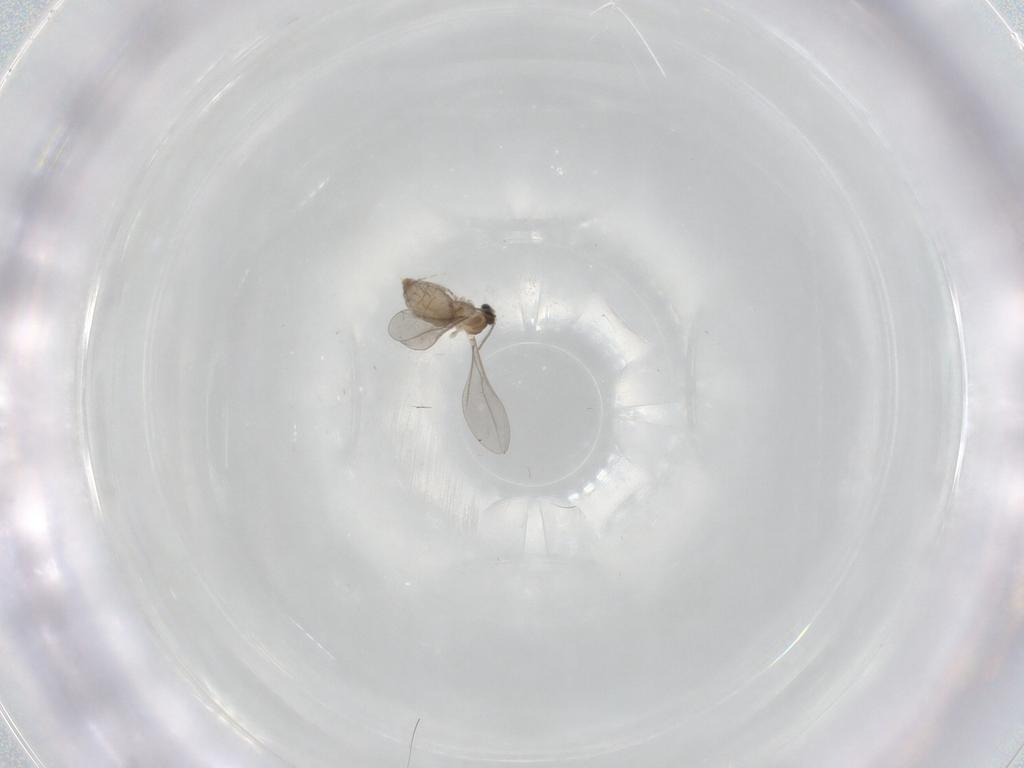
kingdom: Animalia
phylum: Arthropoda
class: Insecta
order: Diptera
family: Cecidomyiidae
